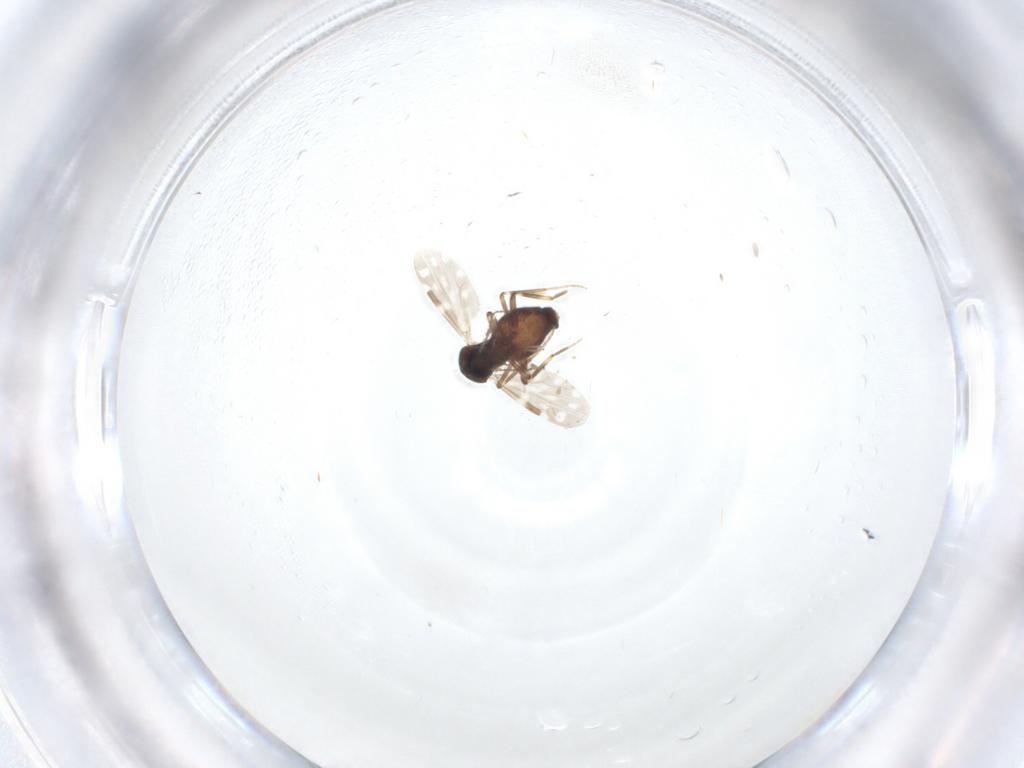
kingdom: Animalia
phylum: Arthropoda
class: Insecta
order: Diptera
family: Ceratopogonidae
